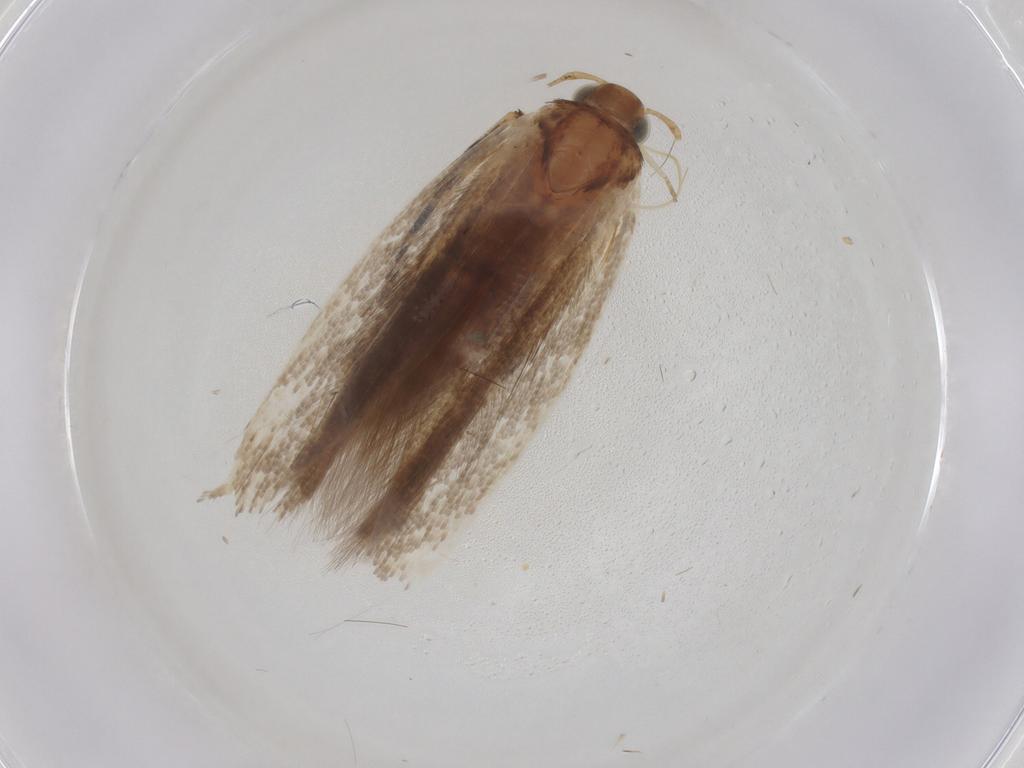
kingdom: Animalia
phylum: Arthropoda
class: Insecta
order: Lepidoptera
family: Gelechiidae
